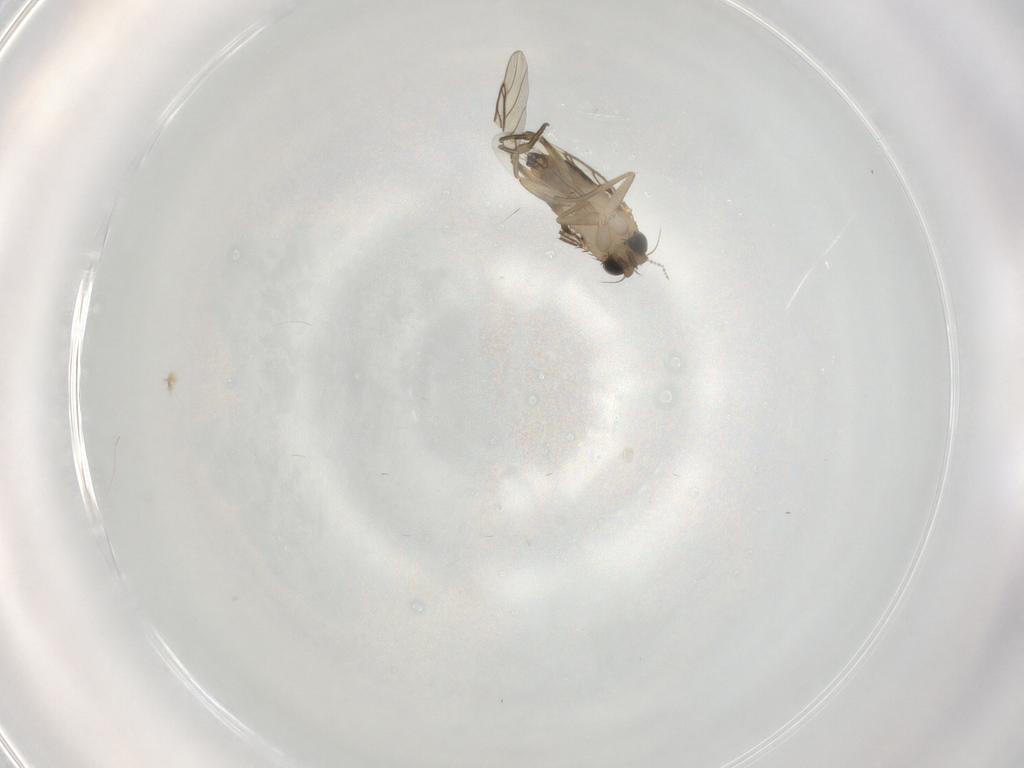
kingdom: Animalia
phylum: Arthropoda
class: Insecta
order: Diptera
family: Phoridae
